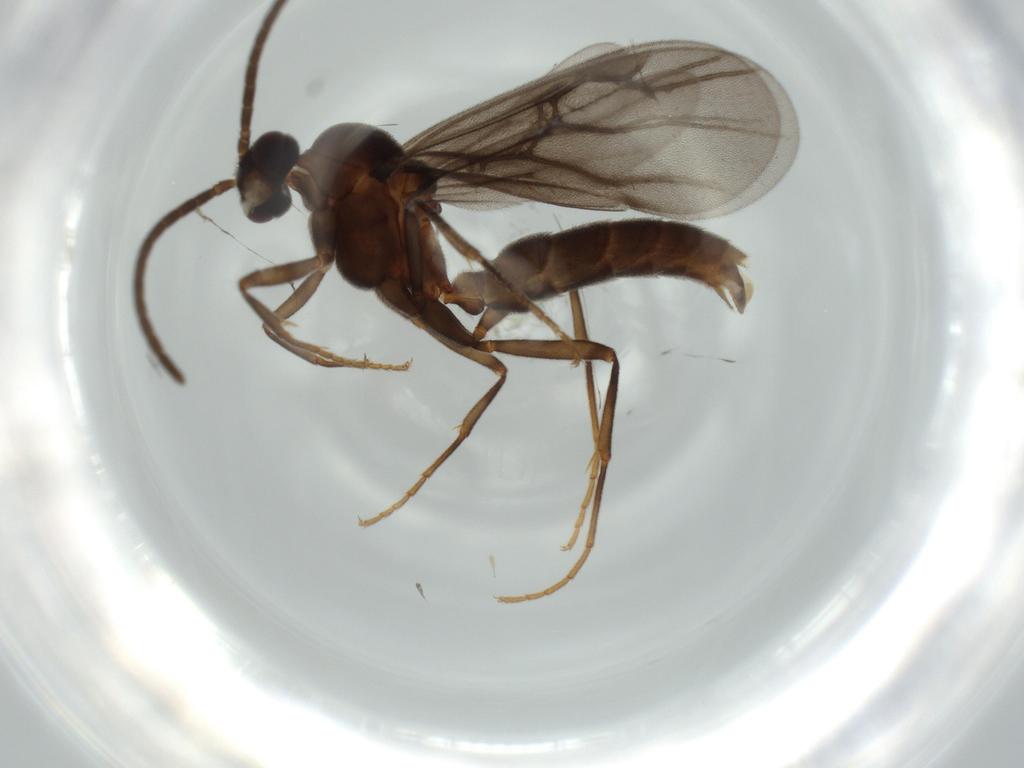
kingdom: Animalia
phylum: Arthropoda
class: Insecta
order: Hymenoptera
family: Formicidae
